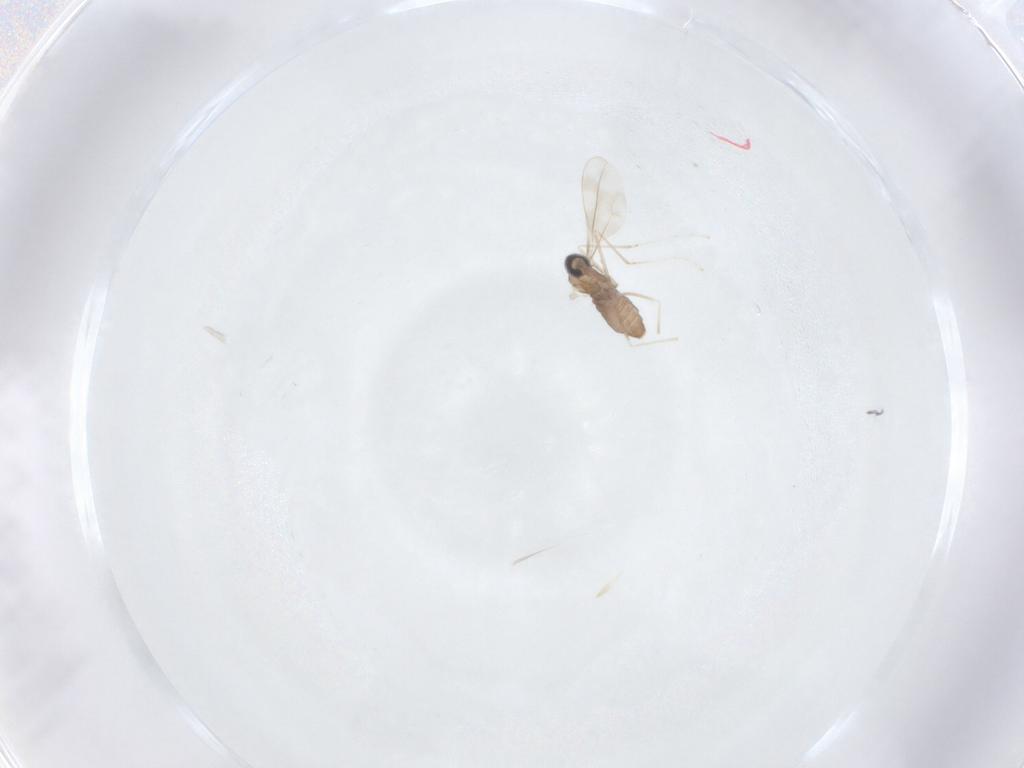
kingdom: Animalia
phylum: Arthropoda
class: Insecta
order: Diptera
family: Cecidomyiidae
